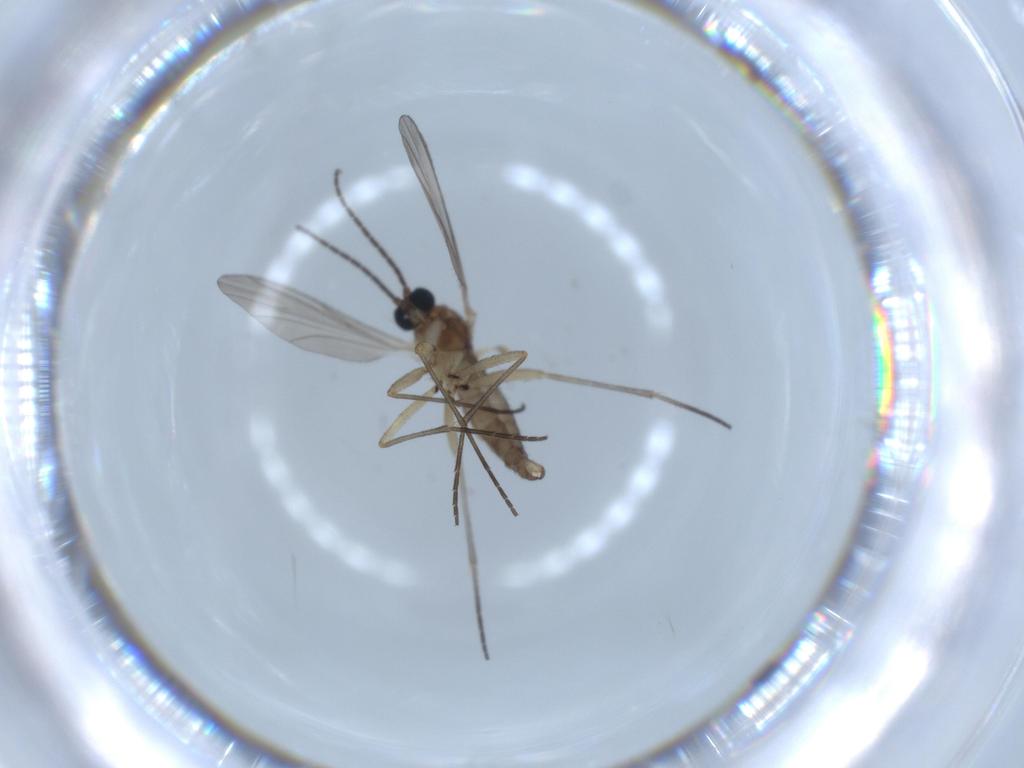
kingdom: Animalia
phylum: Arthropoda
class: Insecta
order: Diptera
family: Sciaridae
